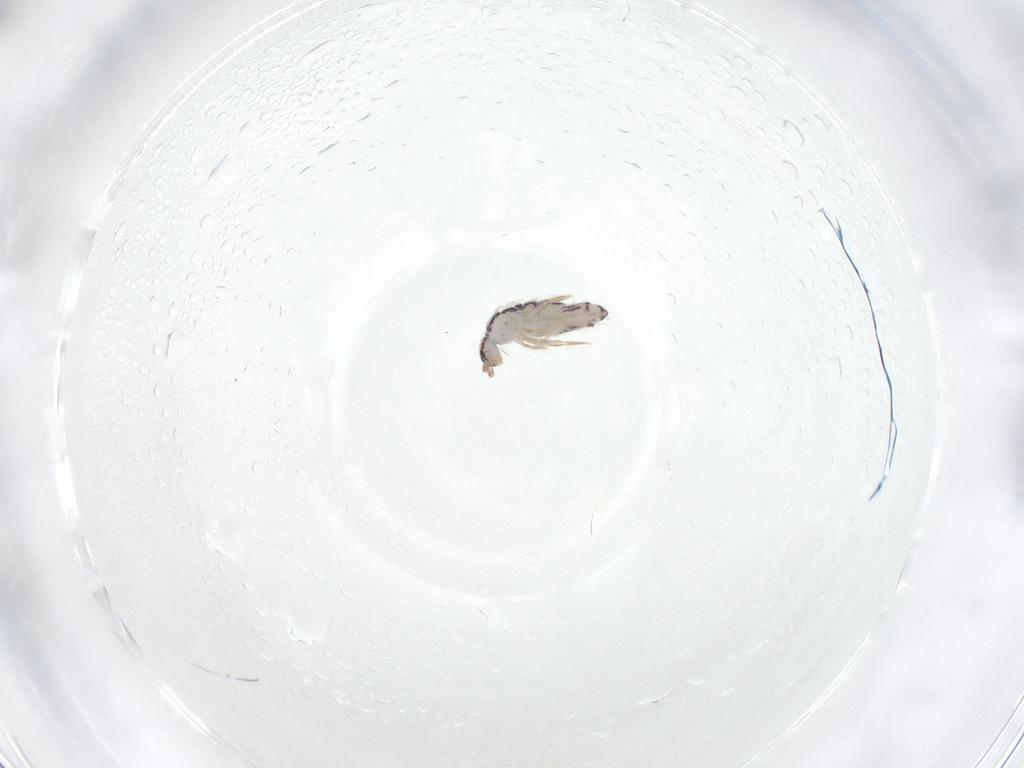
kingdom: Animalia
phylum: Arthropoda
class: Collembola
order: Entomobryomorpha
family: Entomobryidae
